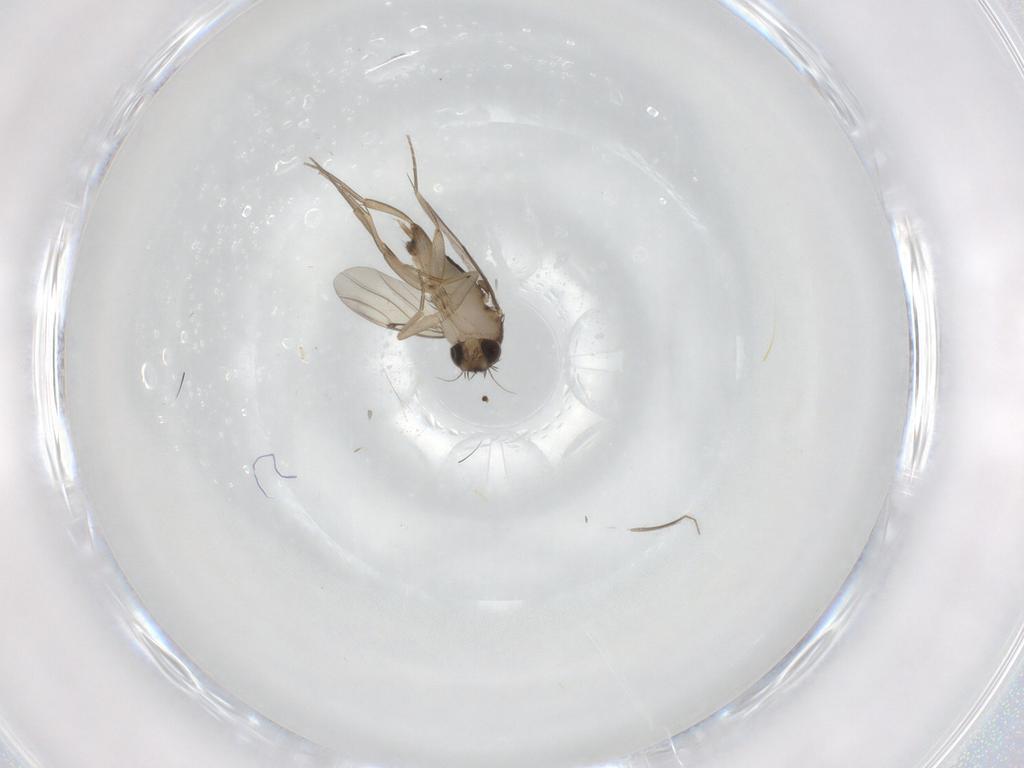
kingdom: Animalia
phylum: Arthropoda
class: Insecta
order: Diptera
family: Phoridae
